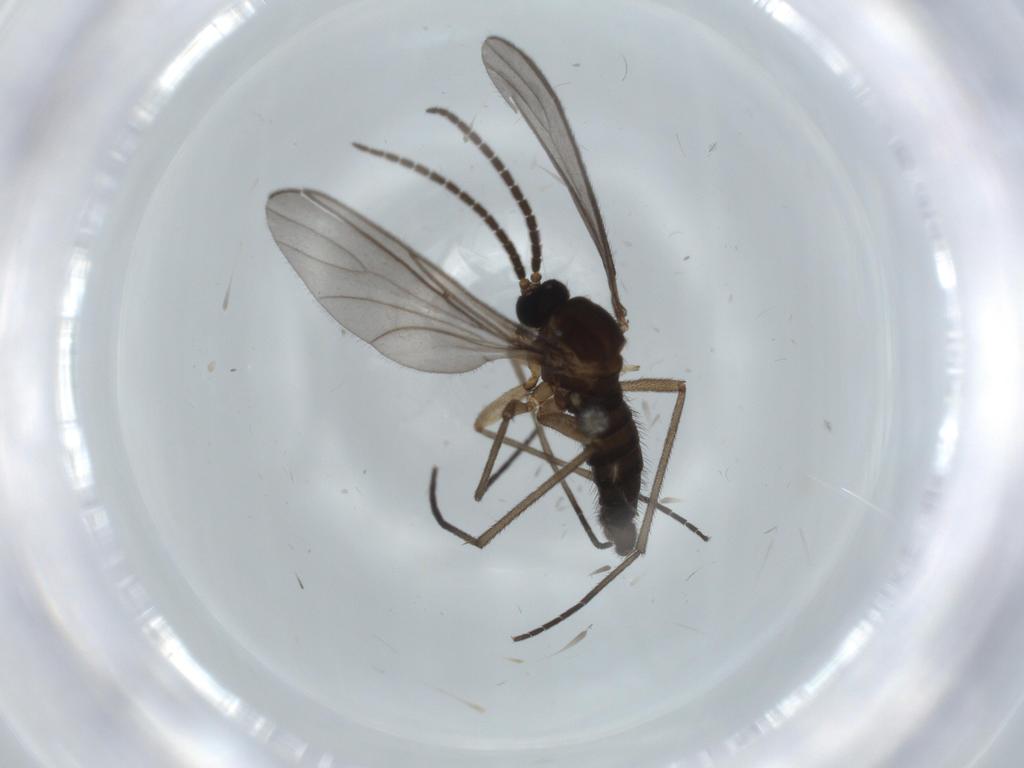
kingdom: Animalia
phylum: Arthropoda
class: Insecta
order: Diptera
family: Sciaridae
